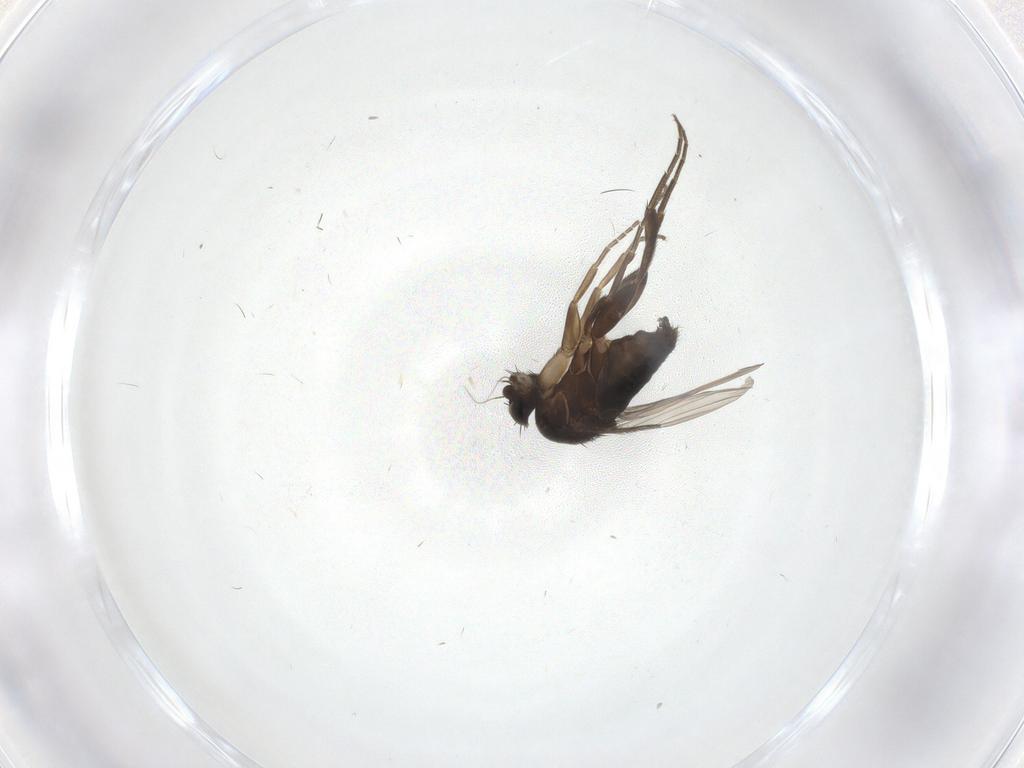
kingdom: Animalia
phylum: Arthropoda
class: Insecta
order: Diptera
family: Phoridae
